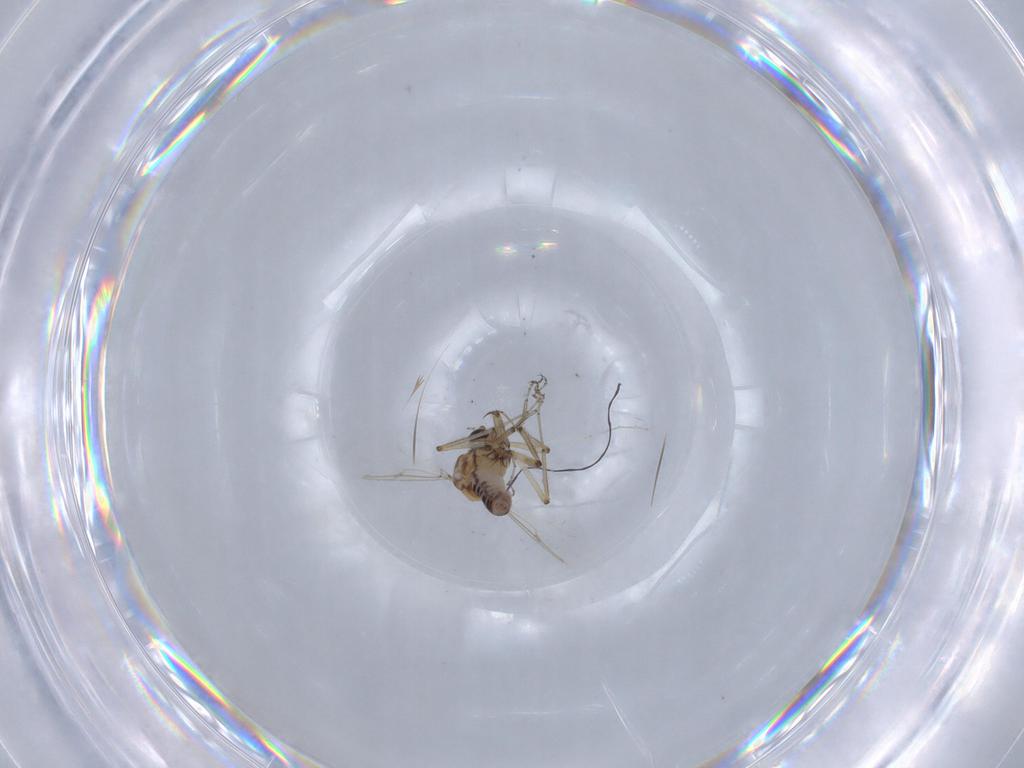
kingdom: Animalia
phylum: Arthropoda
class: Insecta
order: Diptera
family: Ceratopogonidae
